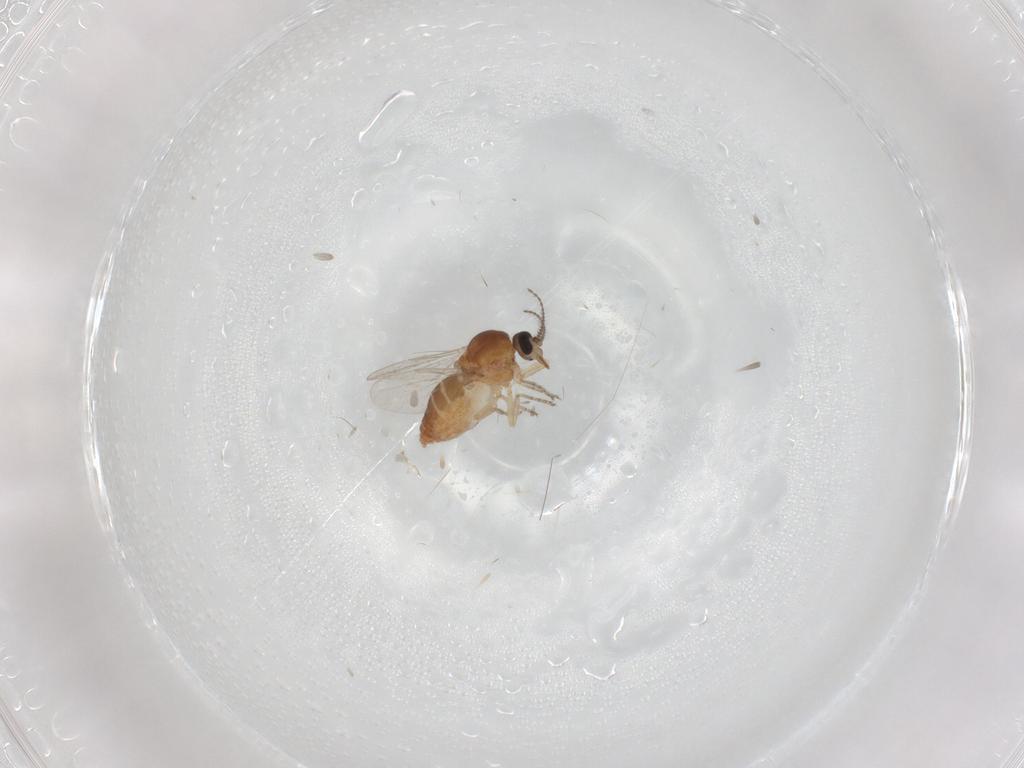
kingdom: Animalia
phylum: Arthropoda
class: Insecta
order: Diptera
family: Ceratopogonidae
